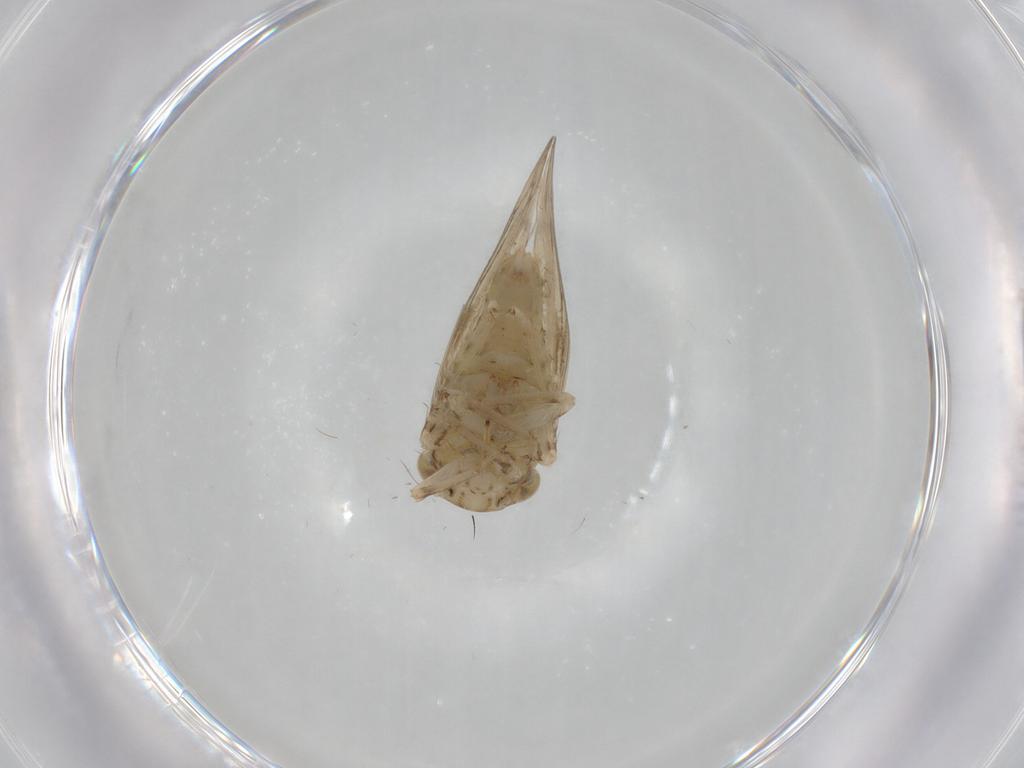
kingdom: Animalia
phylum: Arthropoda
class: Insecta
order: Hemiptera
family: Cicadellidae
